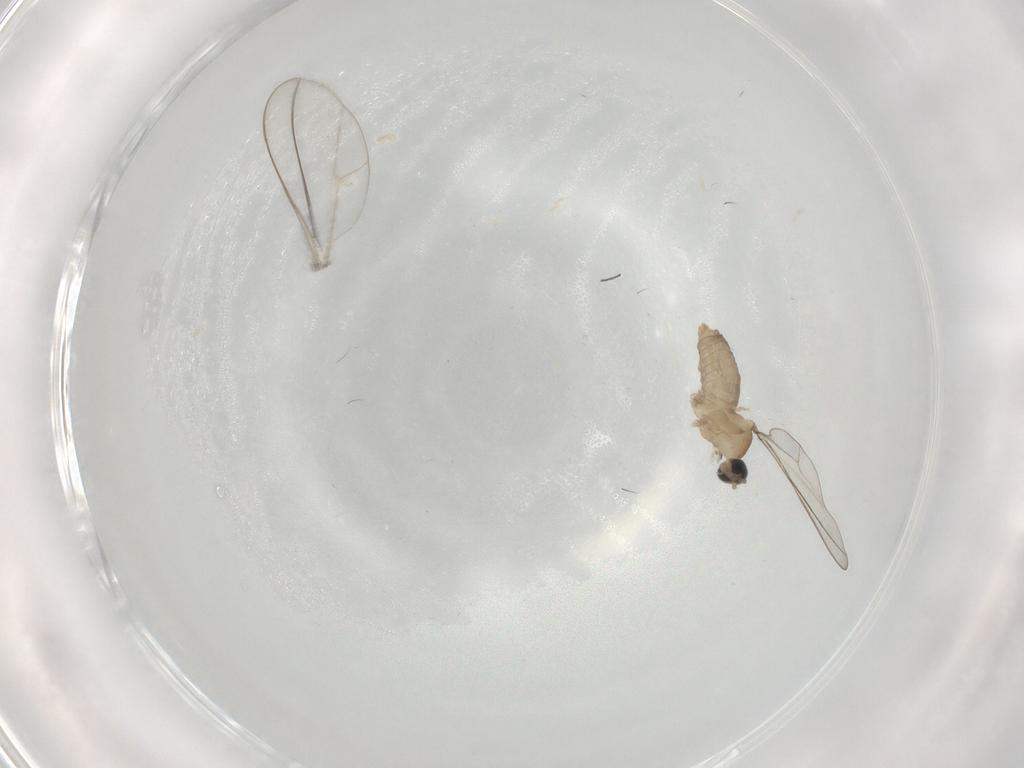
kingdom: Animalia
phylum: Arthropoda
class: Insecta
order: Diptera
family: Cecidomyiidae
